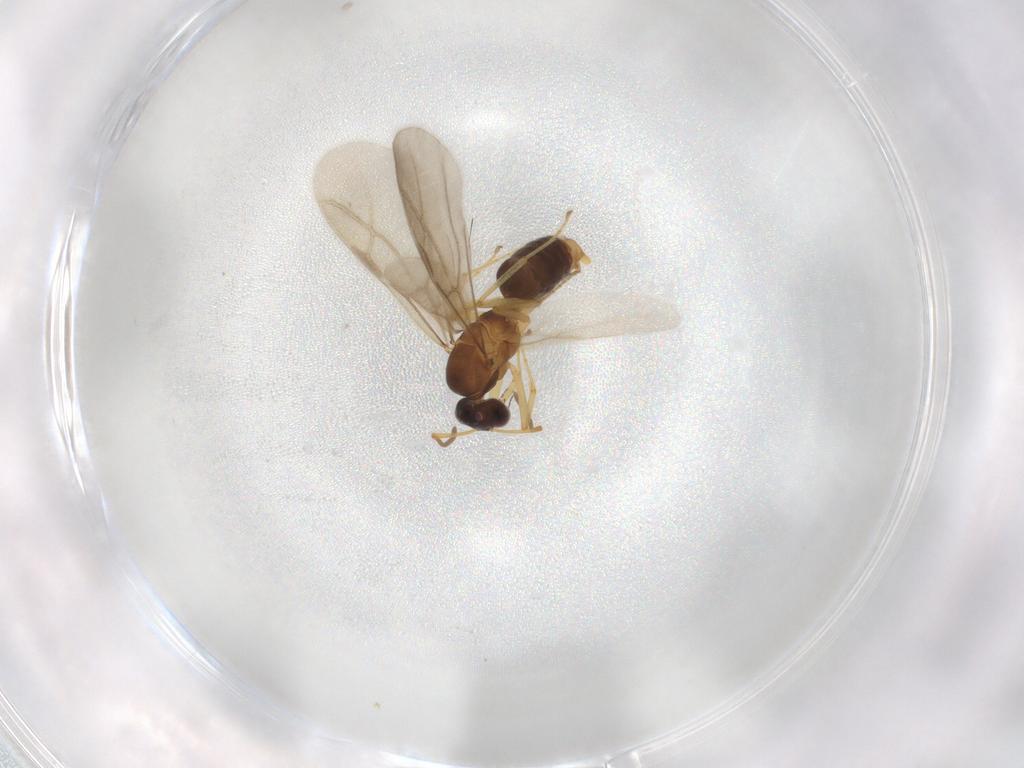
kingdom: Animalia
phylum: Arthropoda
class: Insecta
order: Hymenoptera
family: Formicidae
